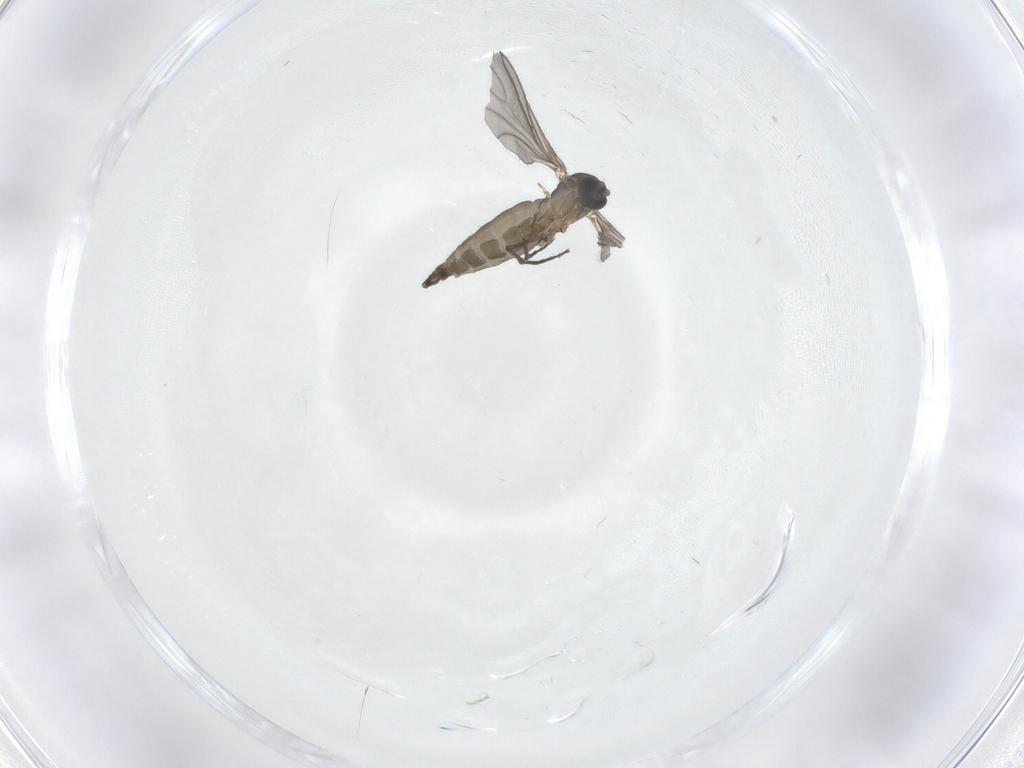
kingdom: Animalia
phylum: Arthropoda
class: Insecta
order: Diptera
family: Sciaridae
